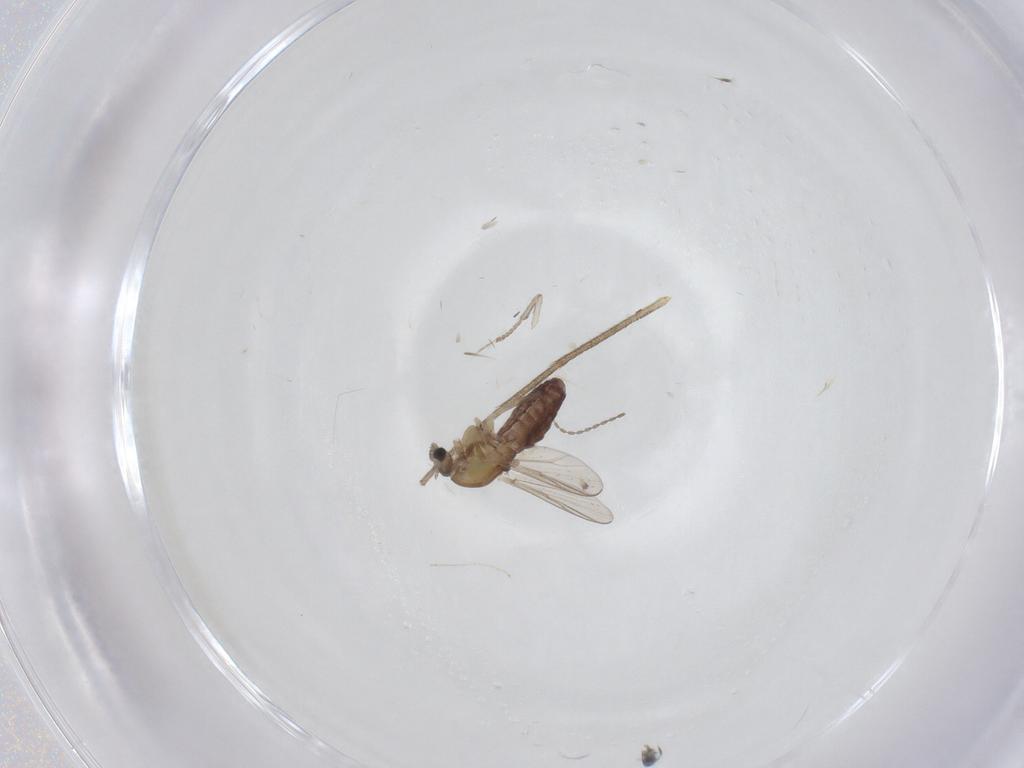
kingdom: Animalia
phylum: Arthropoda
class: Insecta
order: Diptera
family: Chironomidae
